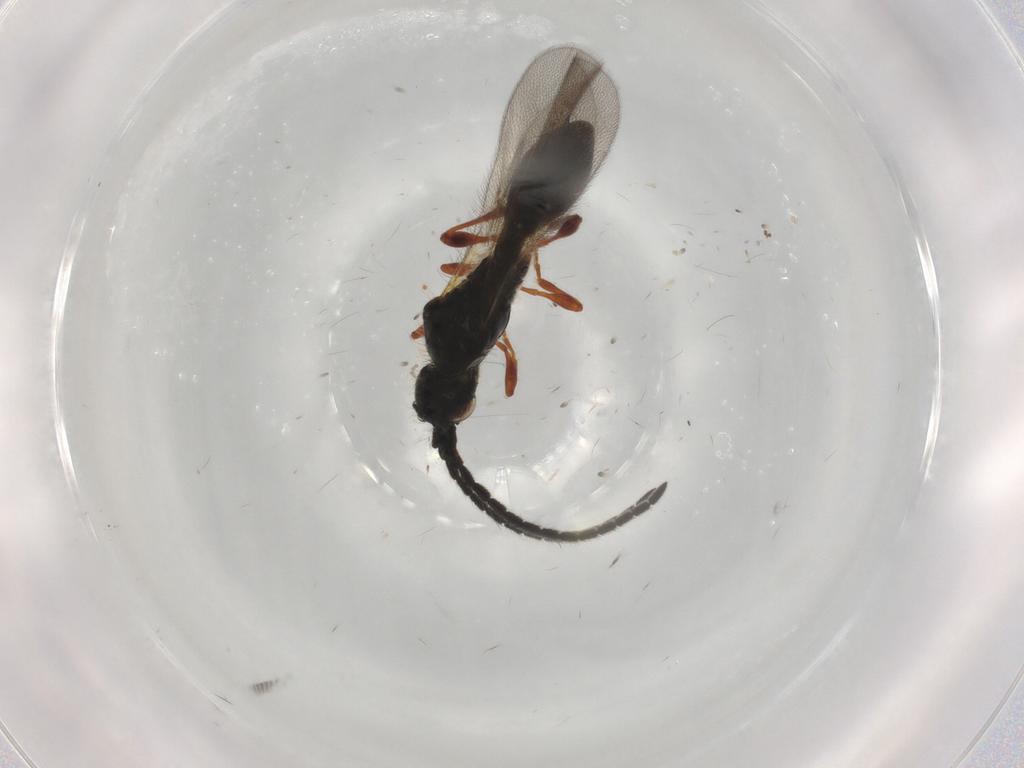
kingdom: Animalia
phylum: Arthropoda
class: Insecta
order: Hymenoptera
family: Diapriidae
